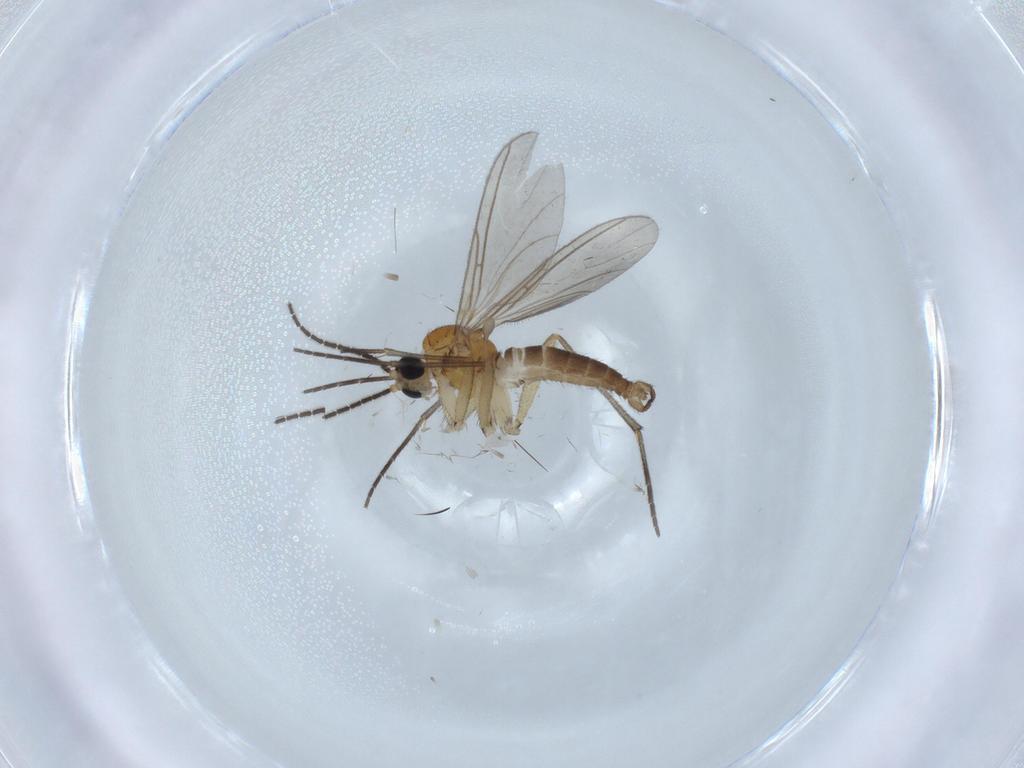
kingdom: Animalia
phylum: Arthropoda
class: Insecta
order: Diptera
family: Sciaridae
